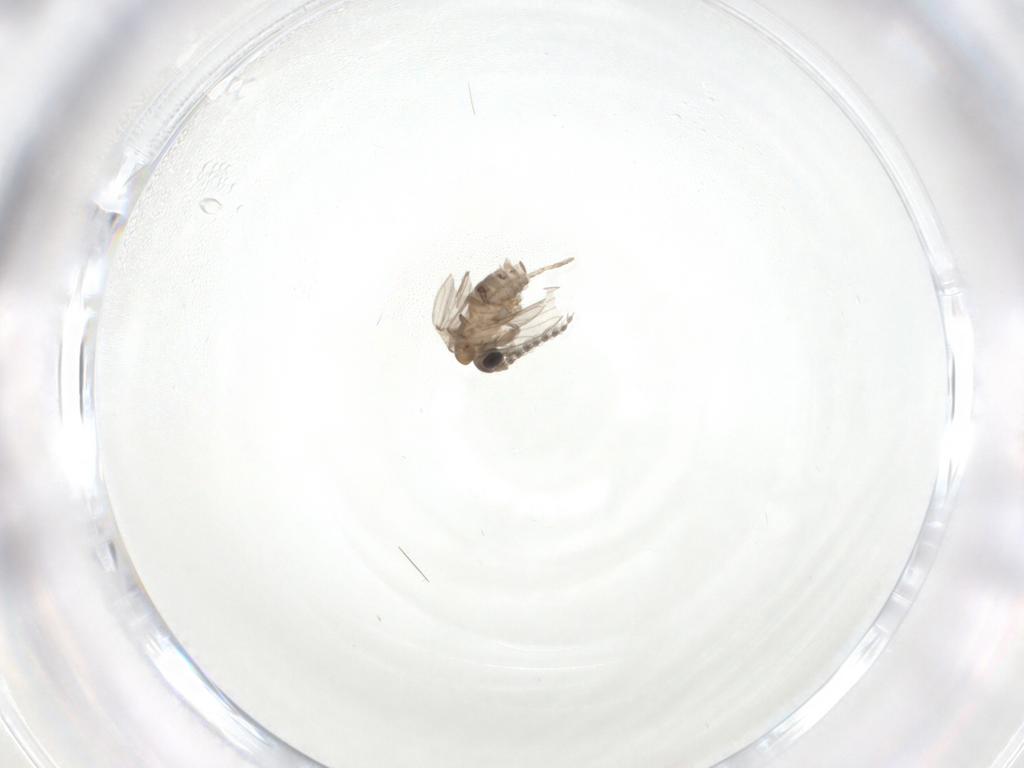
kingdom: Animalia
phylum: Arthropoda
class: Insecta
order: Diptera
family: Psychodidae
